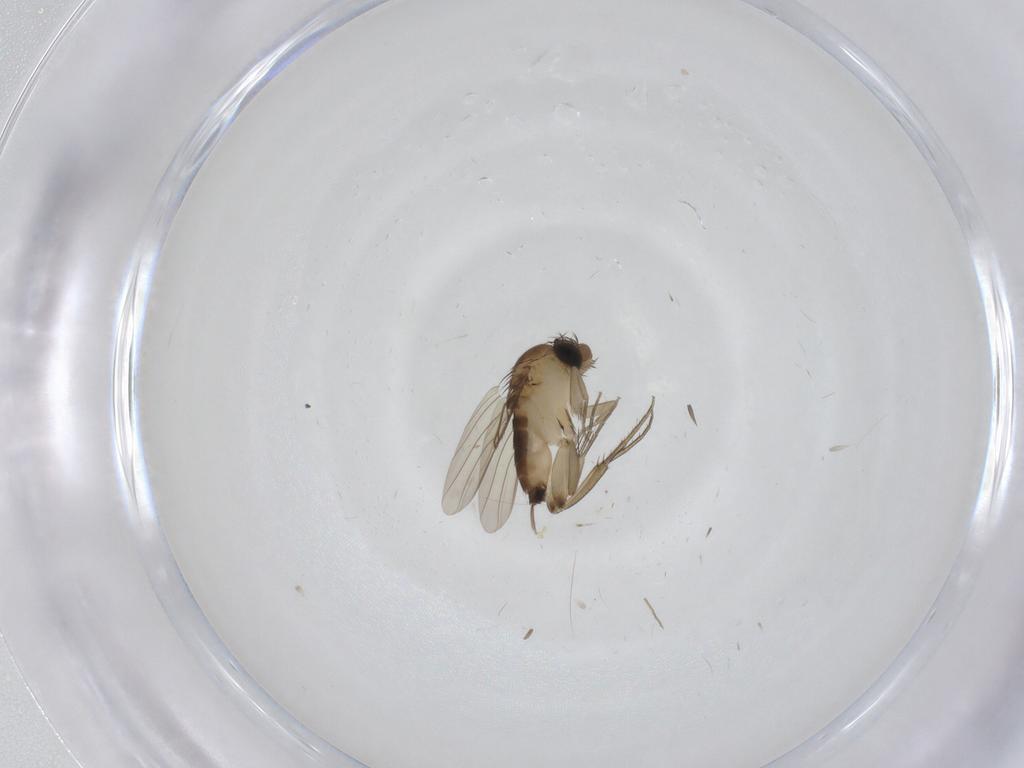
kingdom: Animalia
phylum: Arthropoda
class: Insecta
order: Diptera
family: Phoridae
